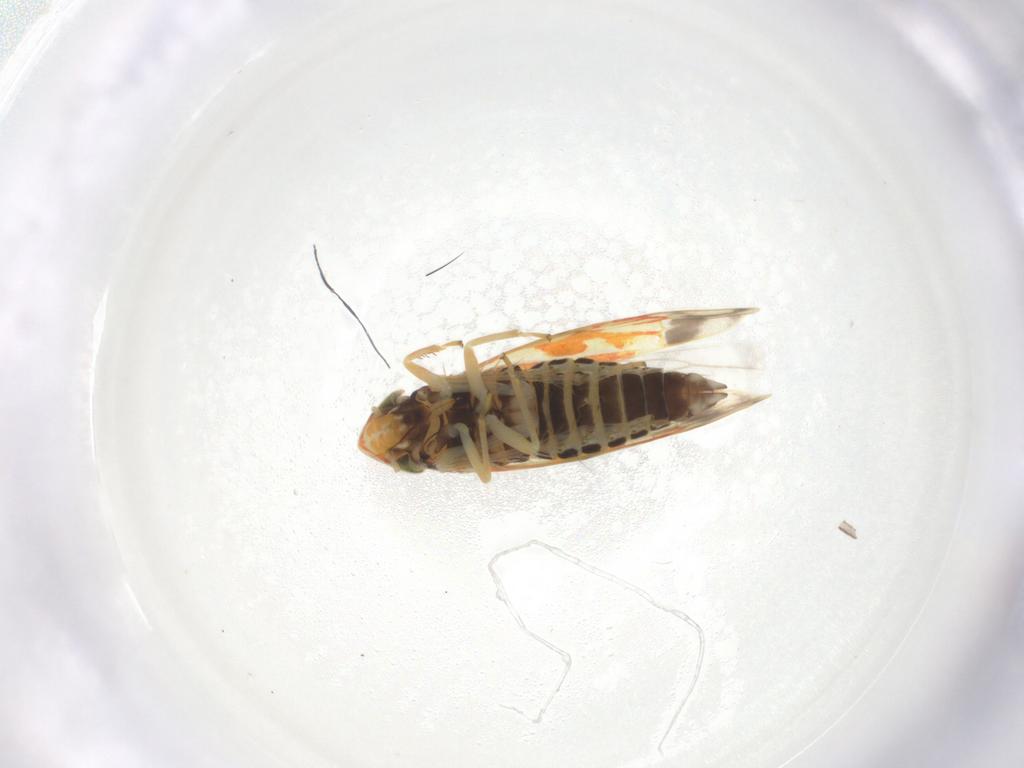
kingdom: Animalia
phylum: Arthropoda
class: Insecta
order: Hemiptera
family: Cicadellidae
